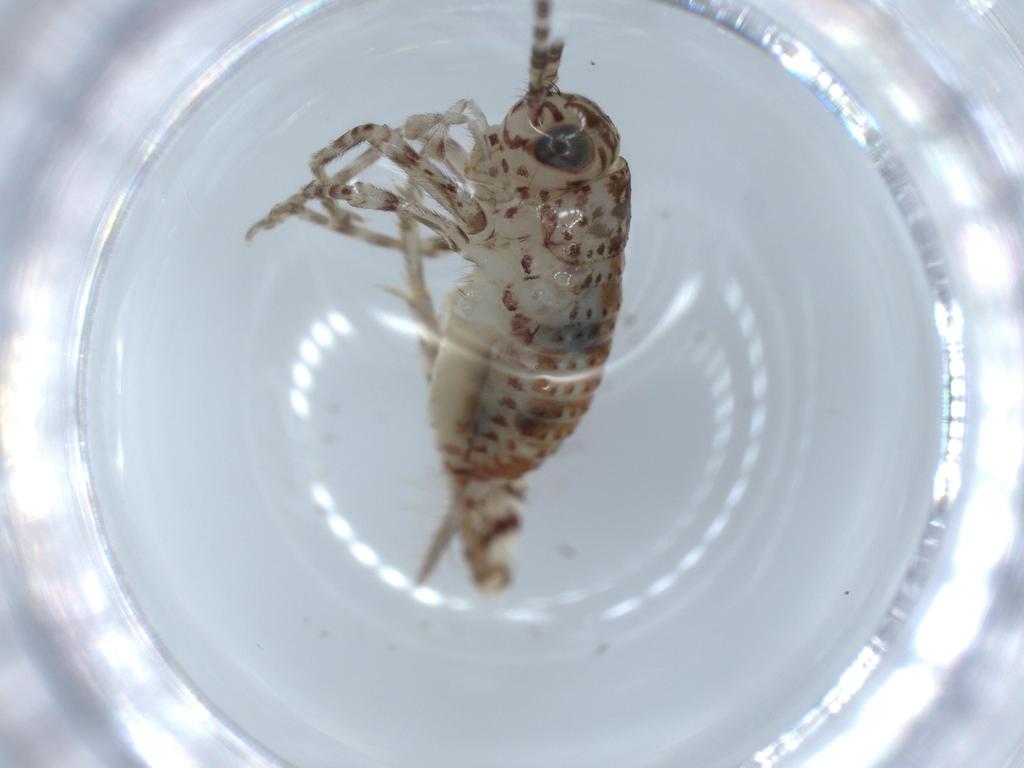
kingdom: Animalia
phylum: Arthropoda
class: Insecta
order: Orthoptera
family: Trigonidiidae
